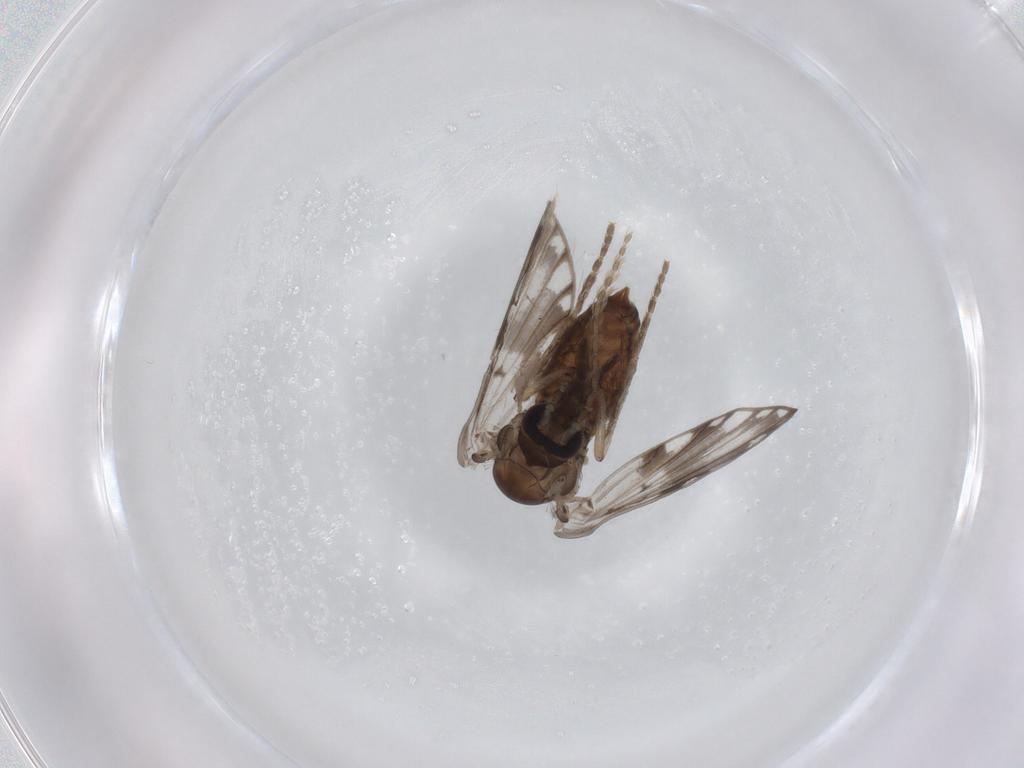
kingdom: Animalia
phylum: Arthropoda
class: Insecta
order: Diptera
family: Psychodidae
